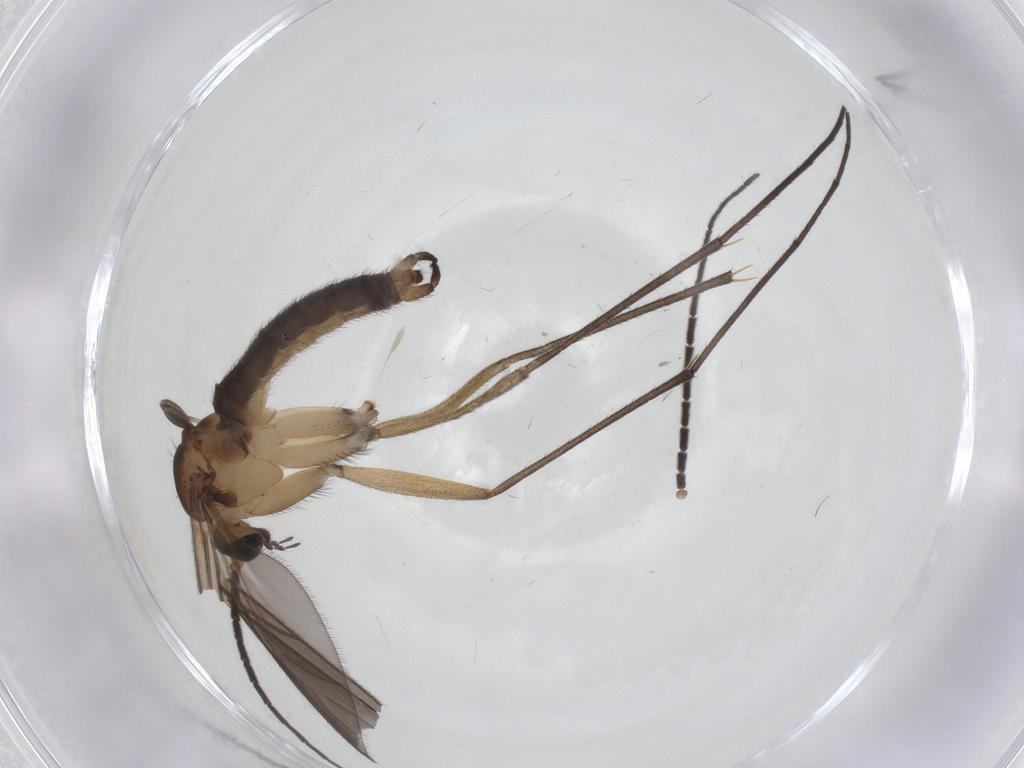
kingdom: Animalia
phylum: Arthropoda
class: Insecta
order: Diptera
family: Sciaridae
